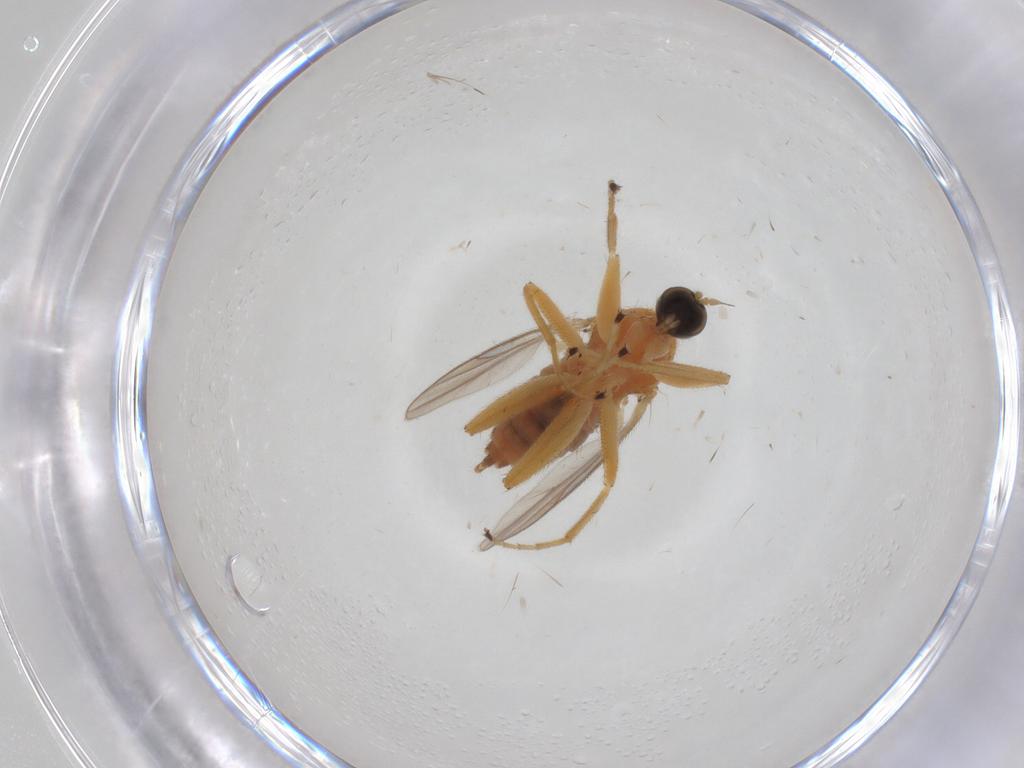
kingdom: Animalia
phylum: Arthropoda
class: Insecta
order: Diptera
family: Hybotidae
